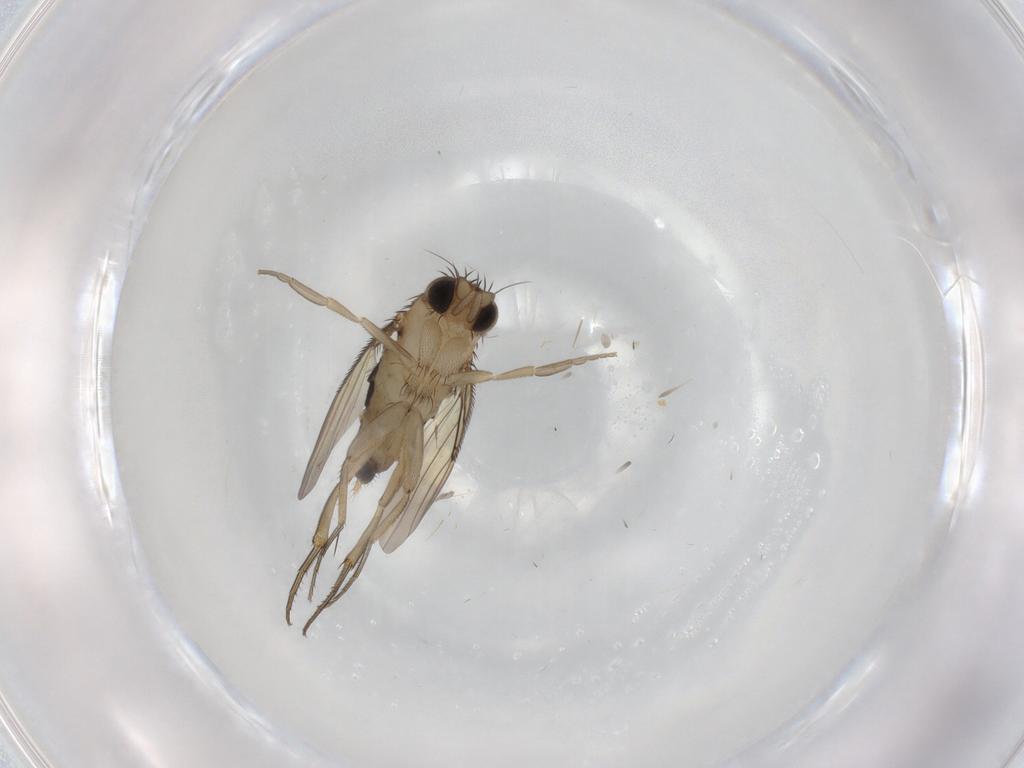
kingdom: Animalia
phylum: Arthropoda
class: Insecta
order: Diptera
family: Phoridae
